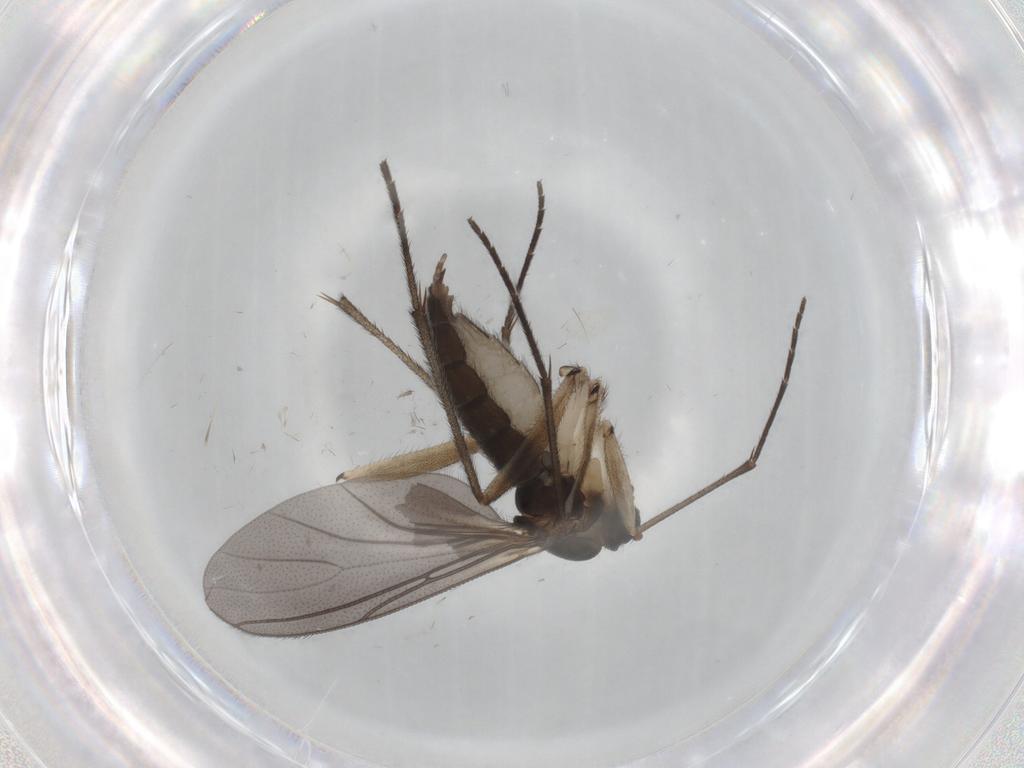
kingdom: Animalia
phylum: Arthropoda
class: Insecta
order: Diptera
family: Sciaridae
